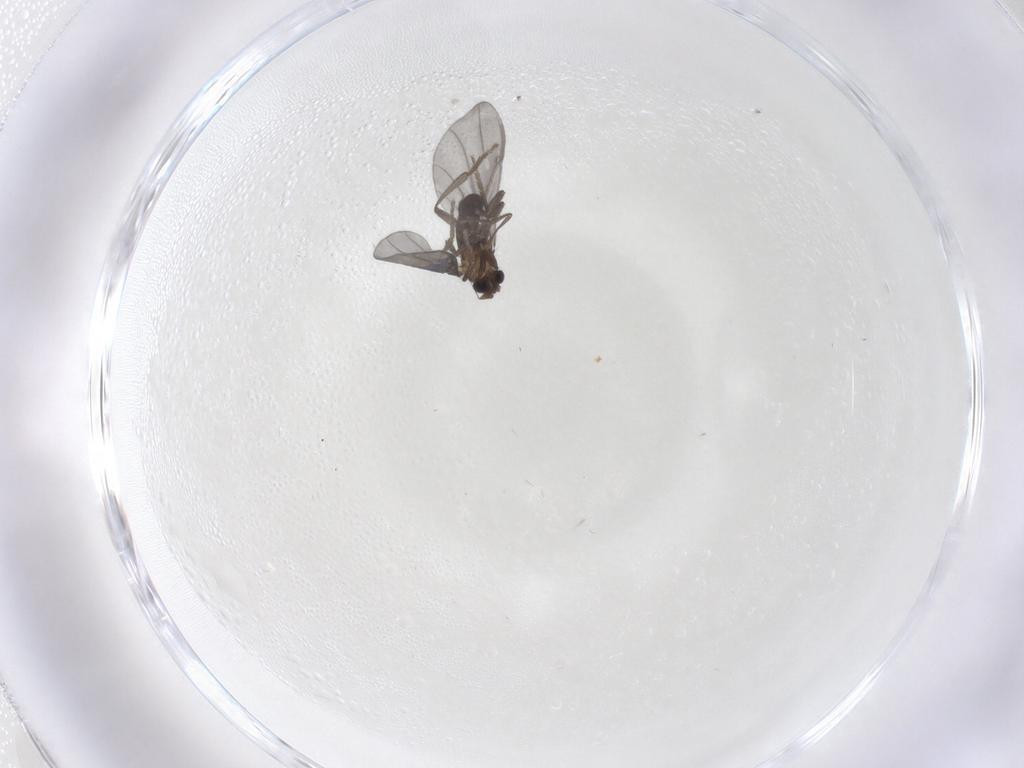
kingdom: Animalia
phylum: Arthropoda
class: Insecta
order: Diptera
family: Phoridae
